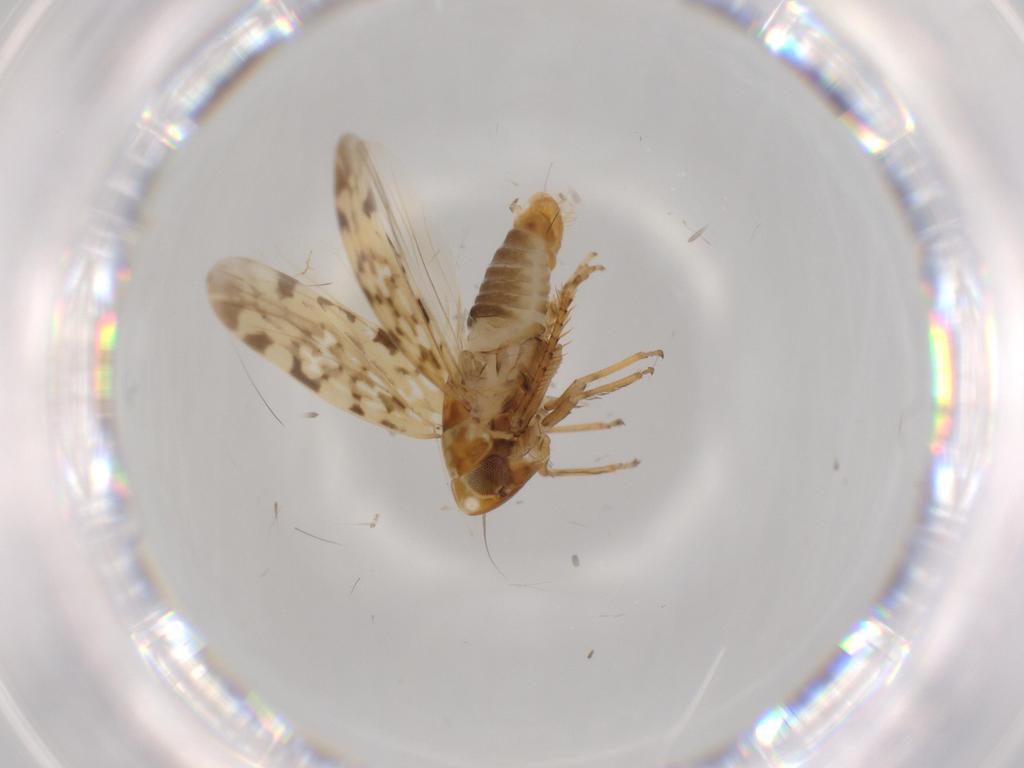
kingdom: Animalia
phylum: Arthropoda
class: Insecta
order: Hemiptera
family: Cicadellidae
